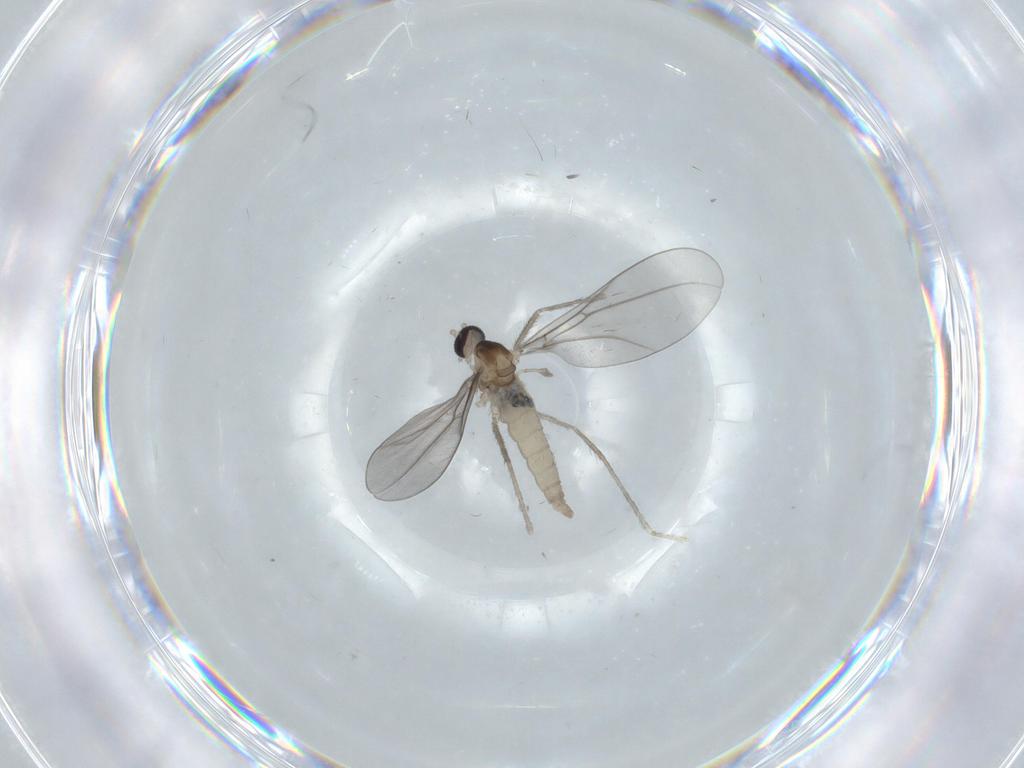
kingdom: Animalia
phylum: Arthropoda
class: Insecta
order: Diptera
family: Cecidomyiidae
